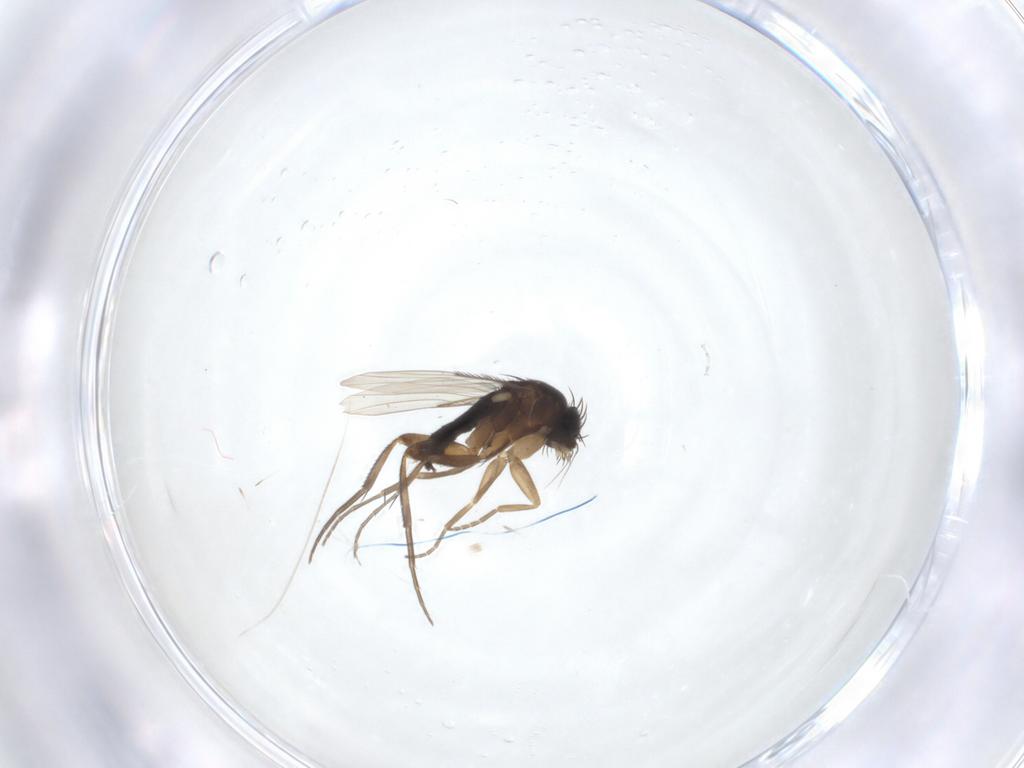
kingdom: Animalia
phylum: Arthropoda
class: Insecta
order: Diptera
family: Phoridae
